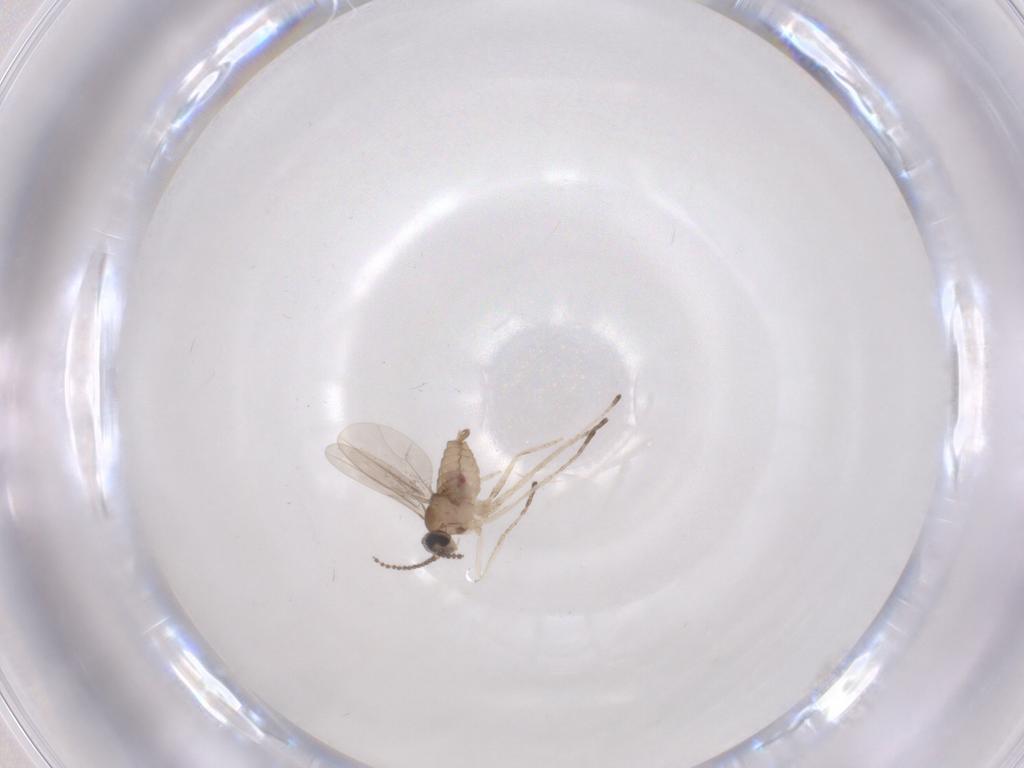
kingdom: Animalia
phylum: Arthropoda
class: Insecta
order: Diptera
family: Cecidomyiidae
